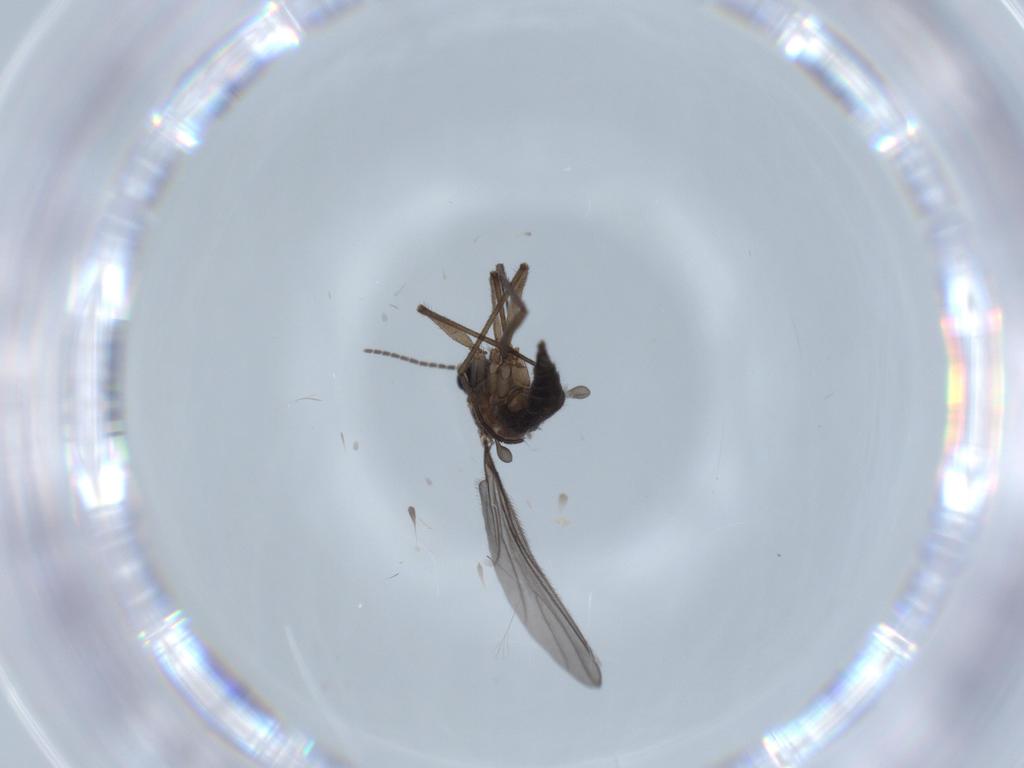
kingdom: Animalia
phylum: Arthropoda
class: Insecta
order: Diptera
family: Sciaridae
